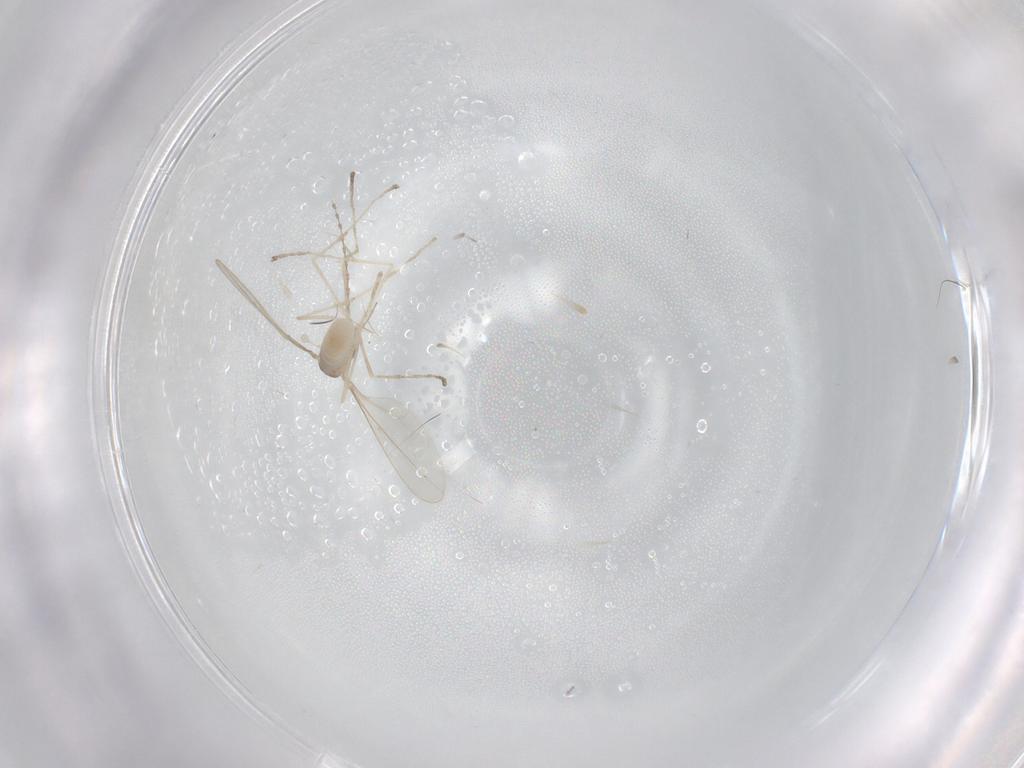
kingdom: Animalia
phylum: Arthropoda
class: Insecta
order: Diptera
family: Cecidomyiidae
